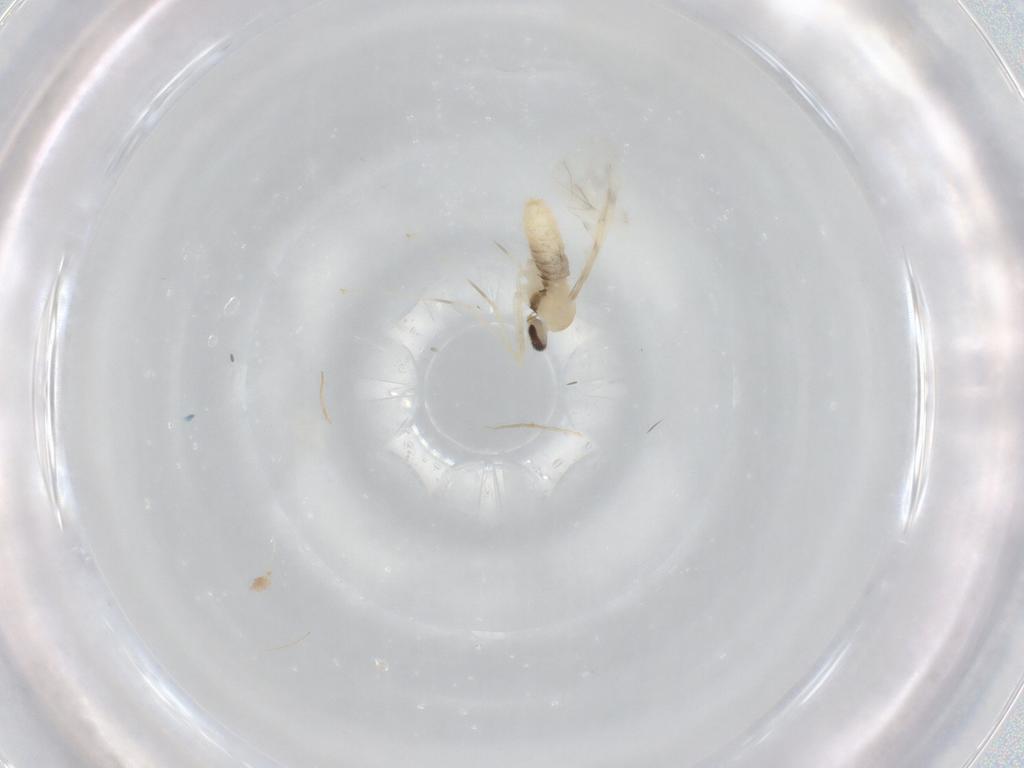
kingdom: Animalia
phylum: Arthropoda
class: Insecta
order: Diptera
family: Cecidomyiidae
